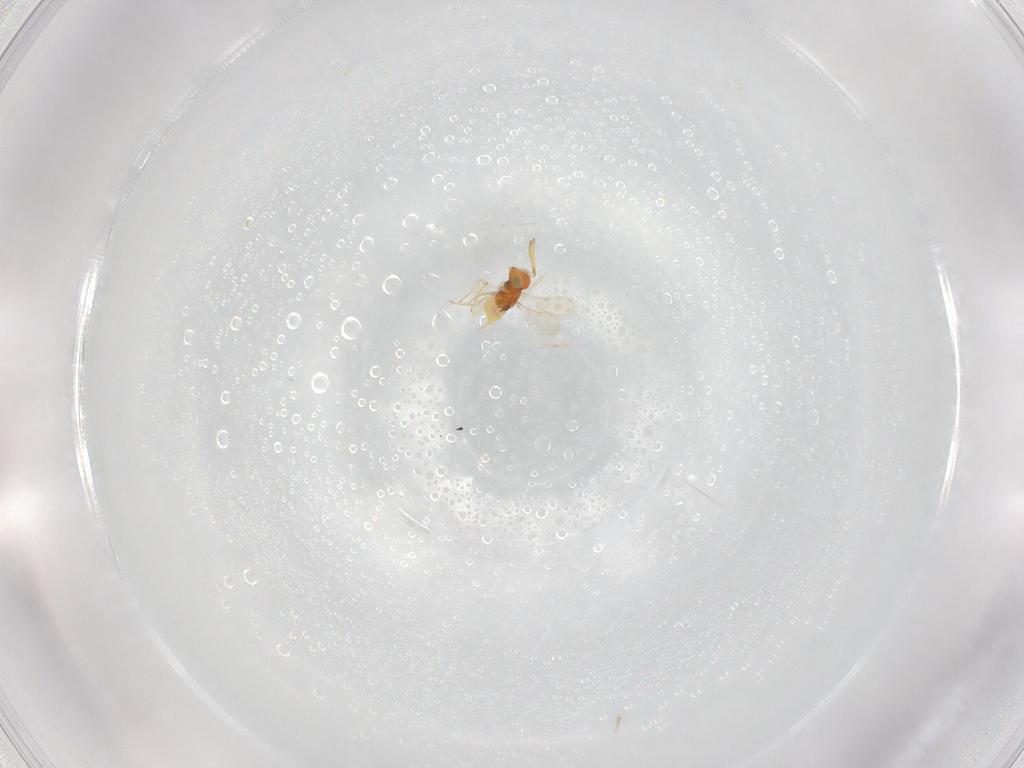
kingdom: Animalia
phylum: Arthropoda
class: Insecta
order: Hymenoptera
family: Aphelinidae
